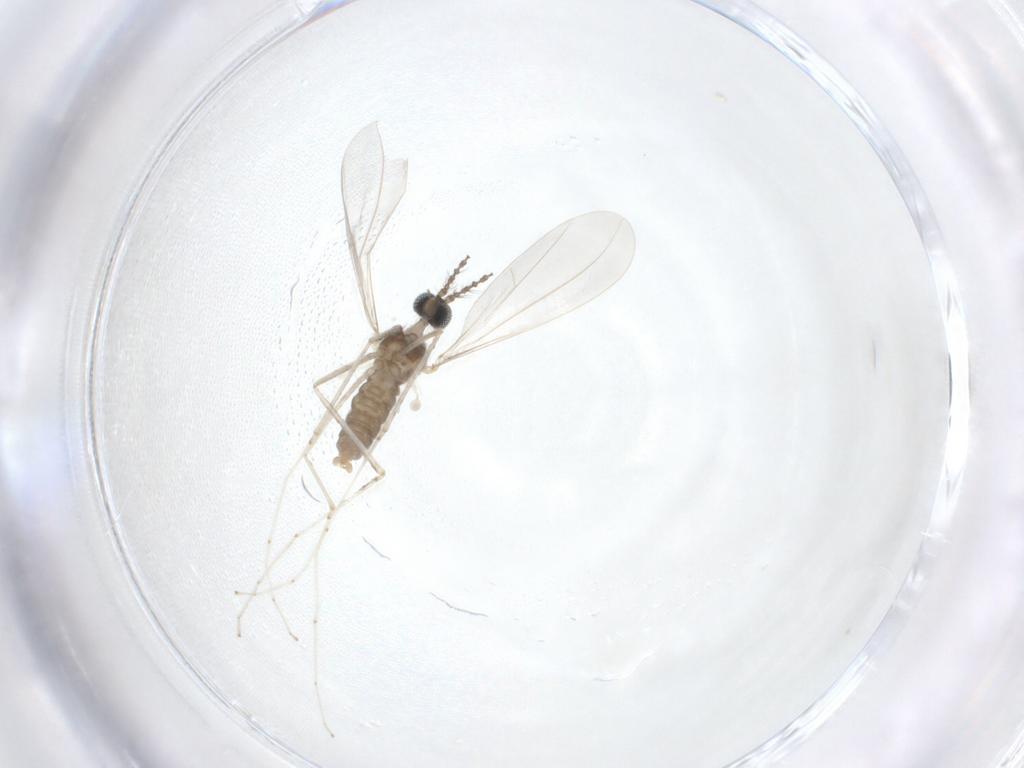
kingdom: Animalia
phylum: Arthropoda
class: Insecta
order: Diptera
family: Cecidomyiidae
